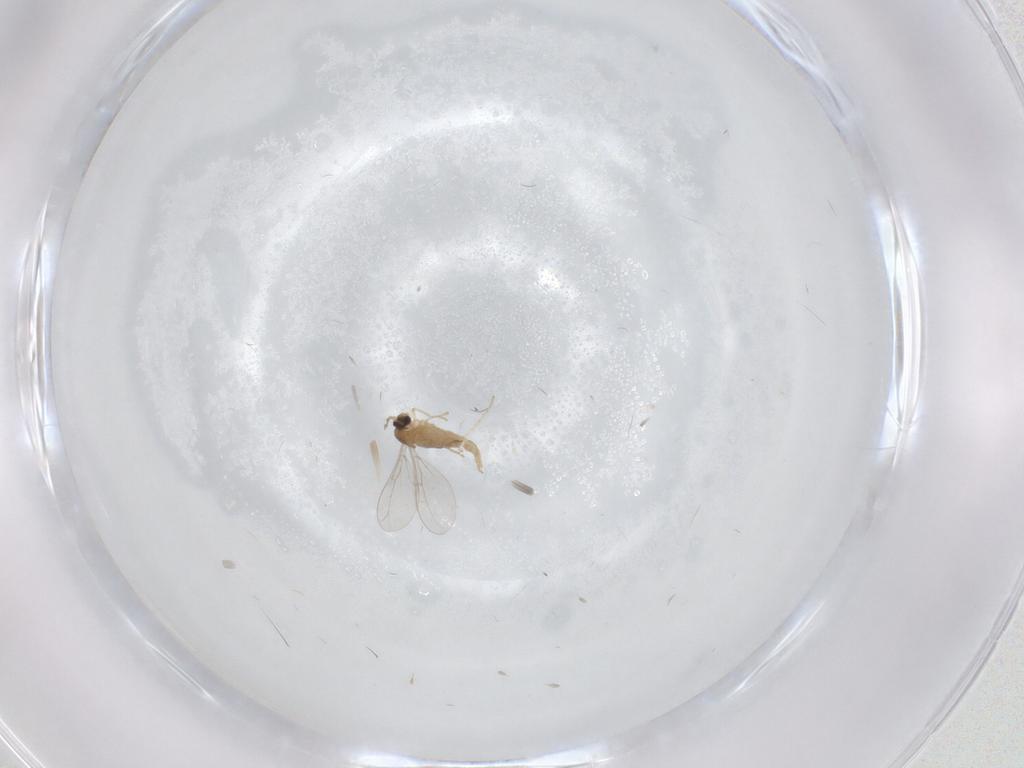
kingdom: Animalia
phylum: Arthropoda
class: Insecta
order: Diptera
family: Cecidomyiidae
